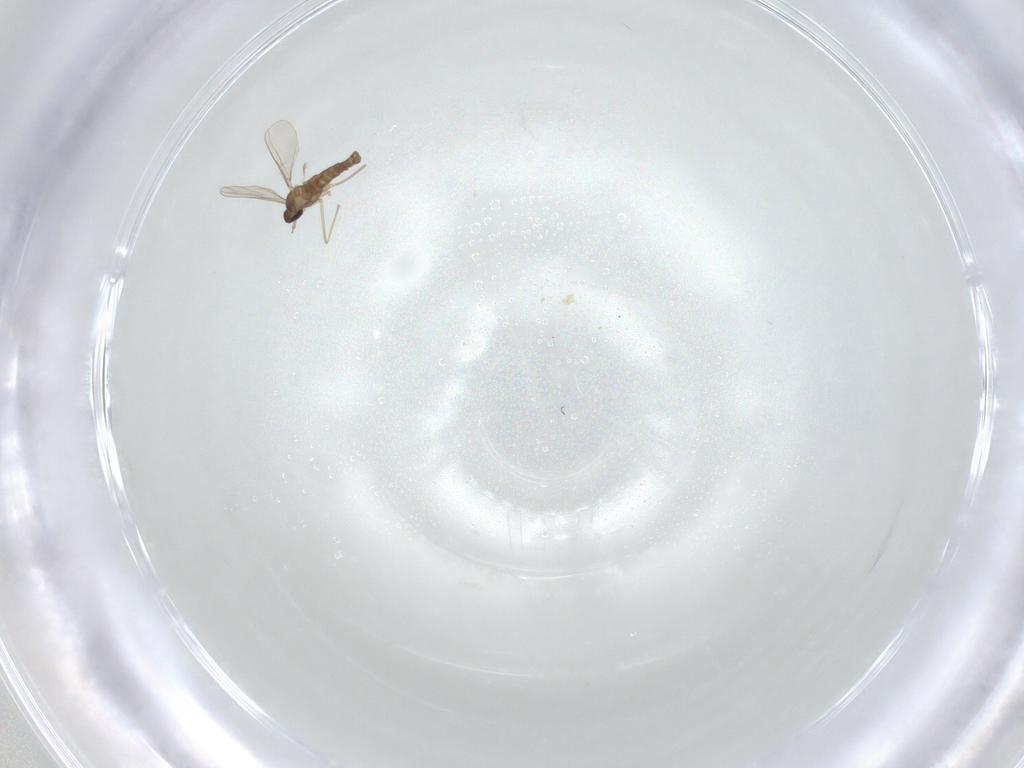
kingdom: Animalia
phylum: Arthropoda
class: Insecta
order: Diptera
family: Cecidomyiidae
